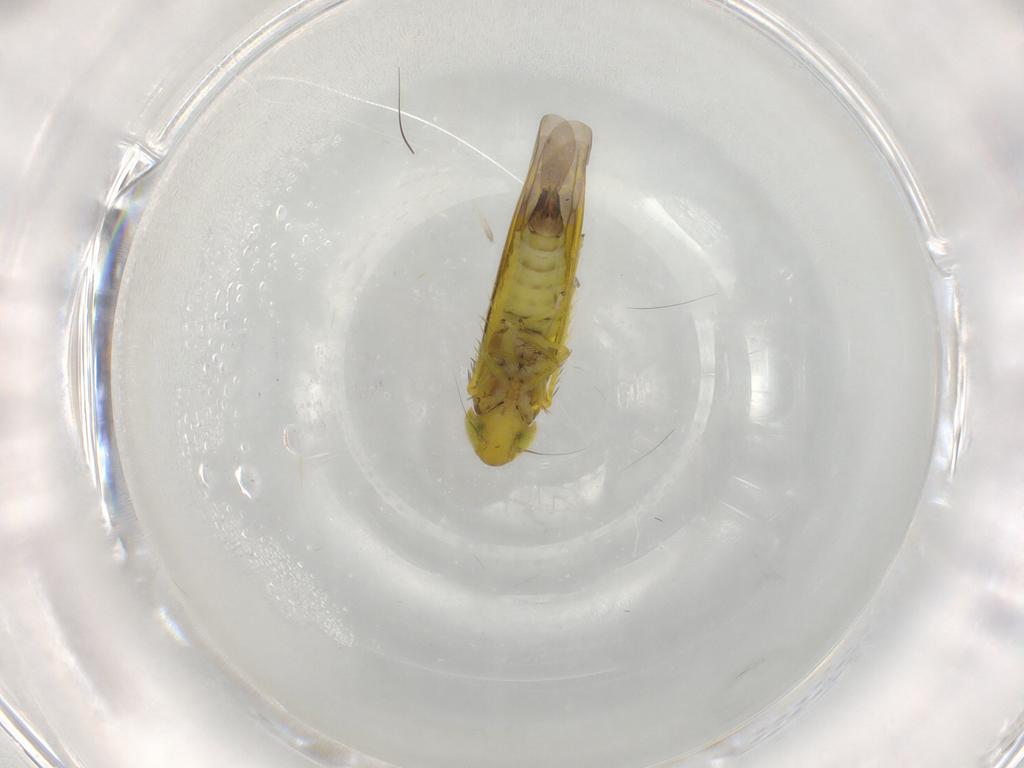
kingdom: Animalia
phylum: Arthropoda
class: Insecta
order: Hemiptera
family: Cicadellidae
